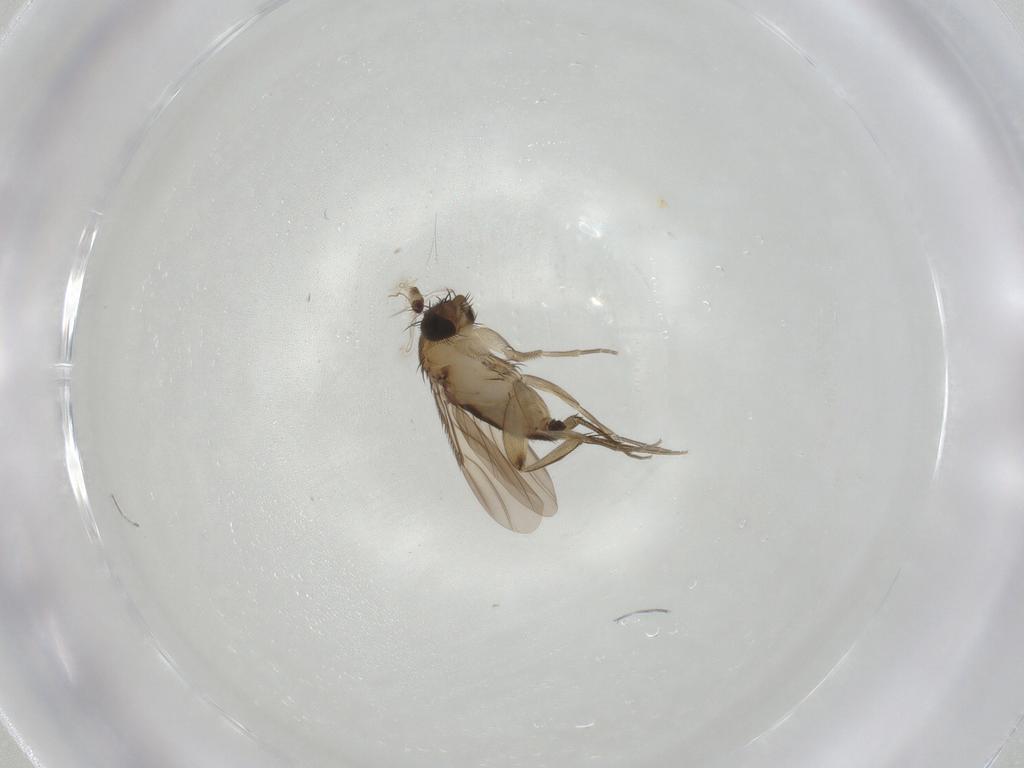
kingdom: Animalia
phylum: Arthropoda
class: Insecta
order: Diptera
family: Phoridae
